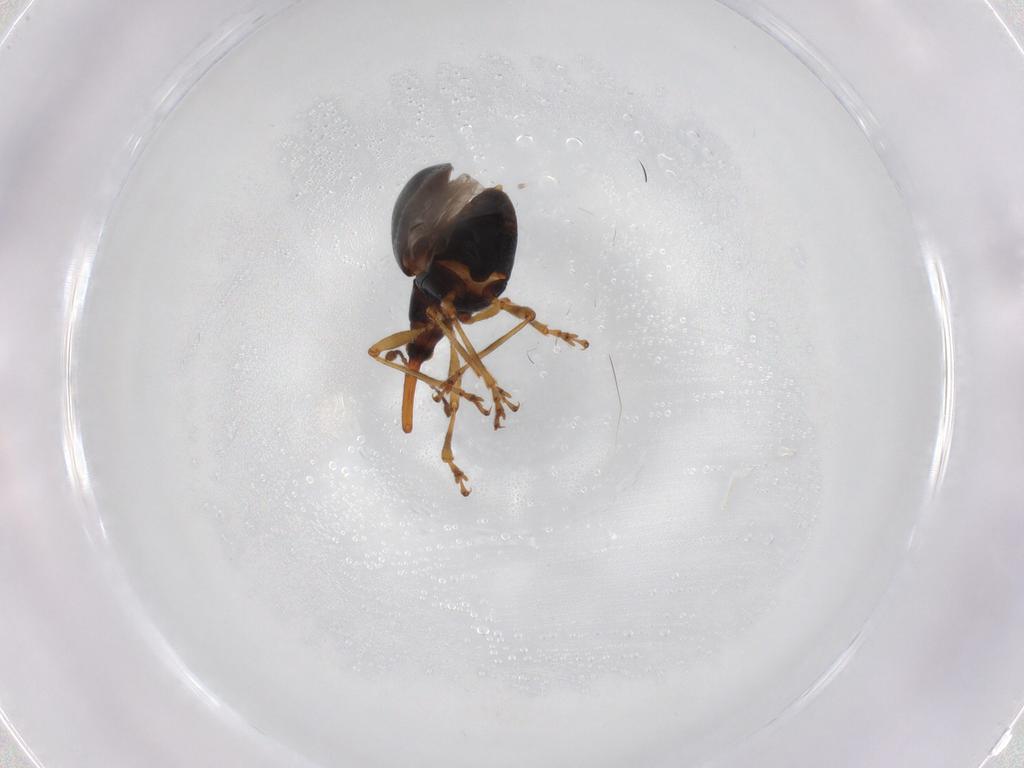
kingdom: Animalia
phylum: Arthropoda
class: Insecta
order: Coleoptera
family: Brentidae
